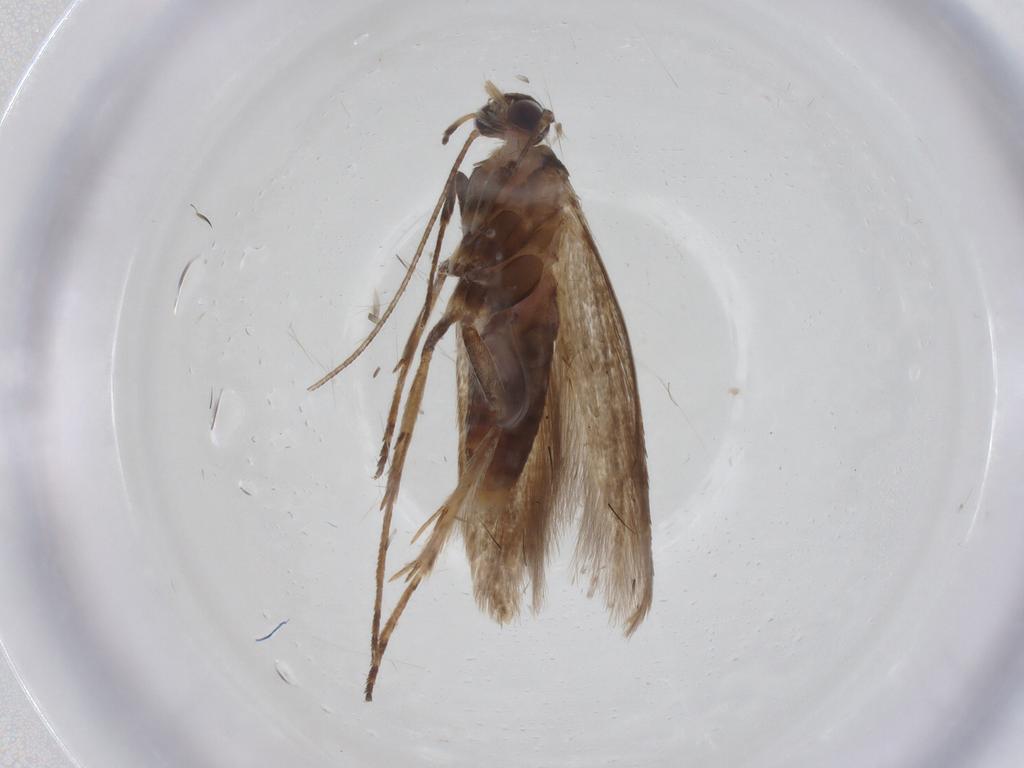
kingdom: Animalia
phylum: Arthropoda
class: Insecta
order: Lepidoptera
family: Cosmopterigidae
